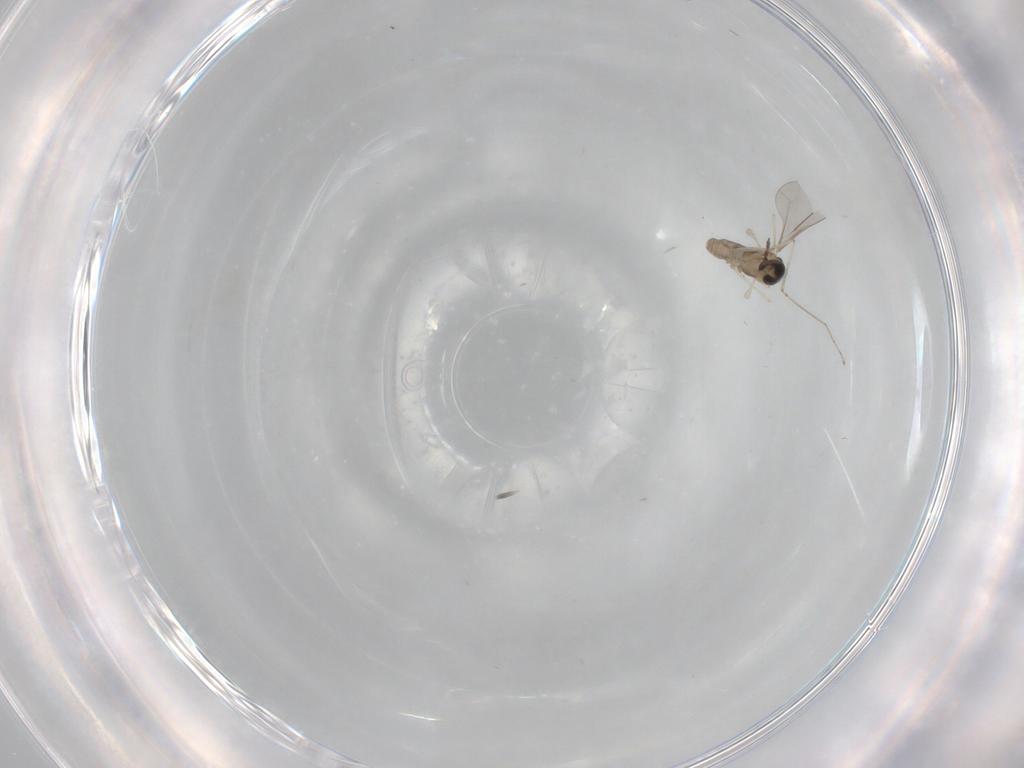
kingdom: Animalia
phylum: Arthropoda
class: Insecta
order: Diptera
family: Cecidomyiidae
